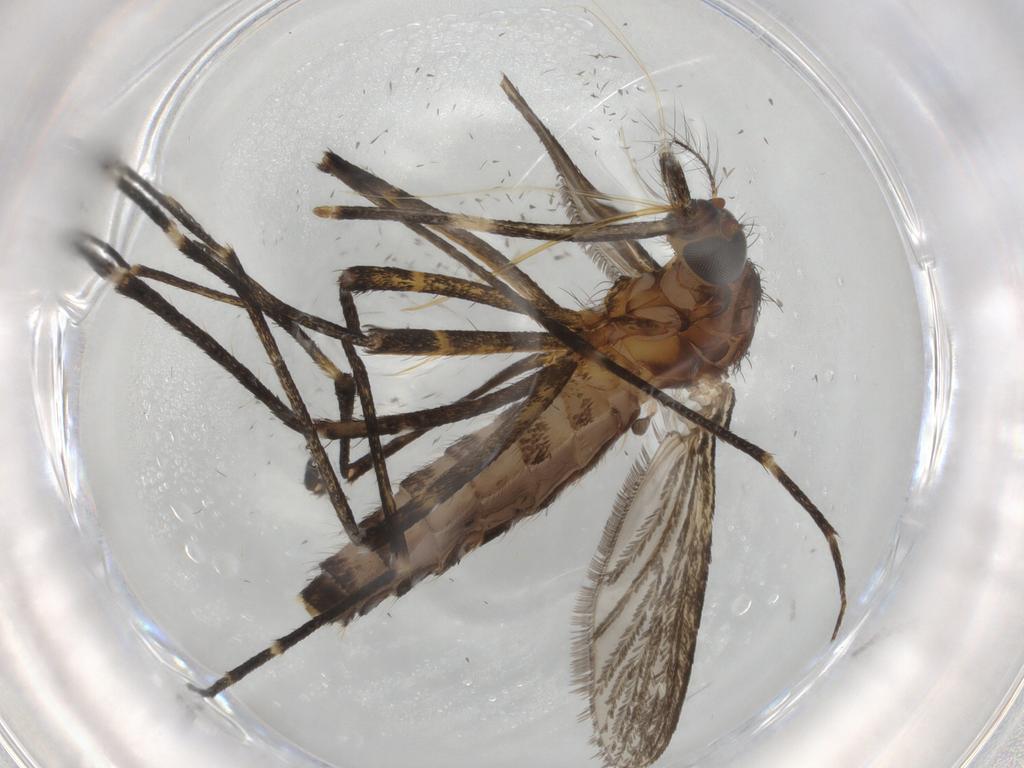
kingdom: Animalia
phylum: Arthropoda
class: Insecta
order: Diptera
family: Culicidae
